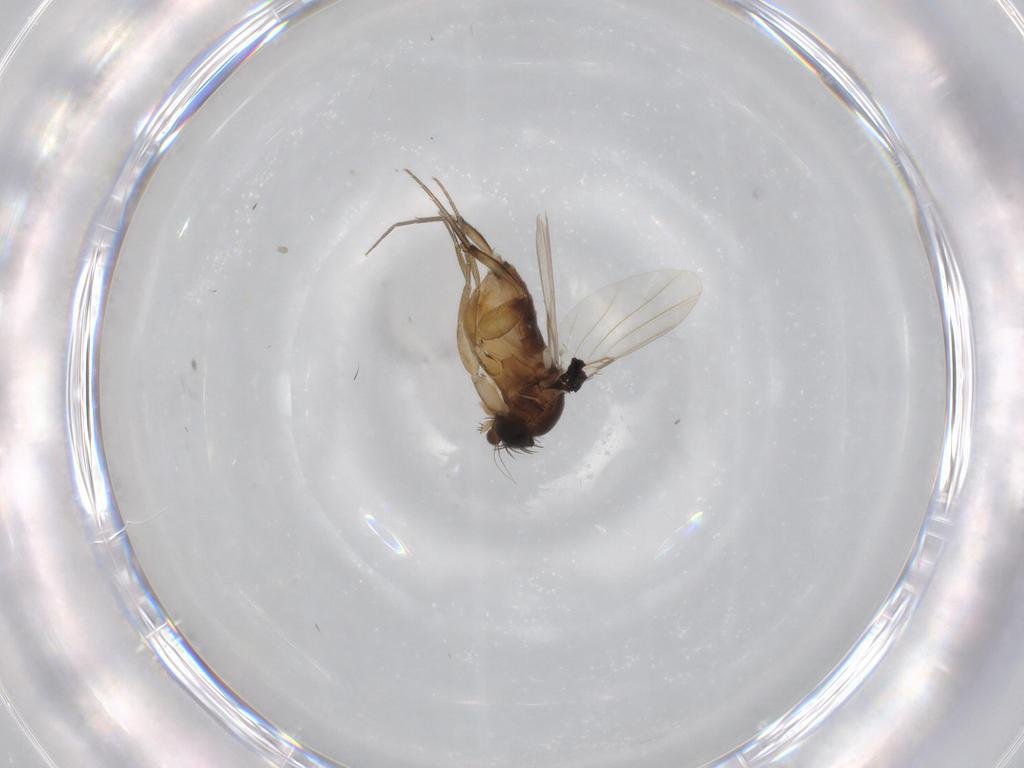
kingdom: Animalia
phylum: Arthropoda
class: Insecta
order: Diptera
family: Phoridae
